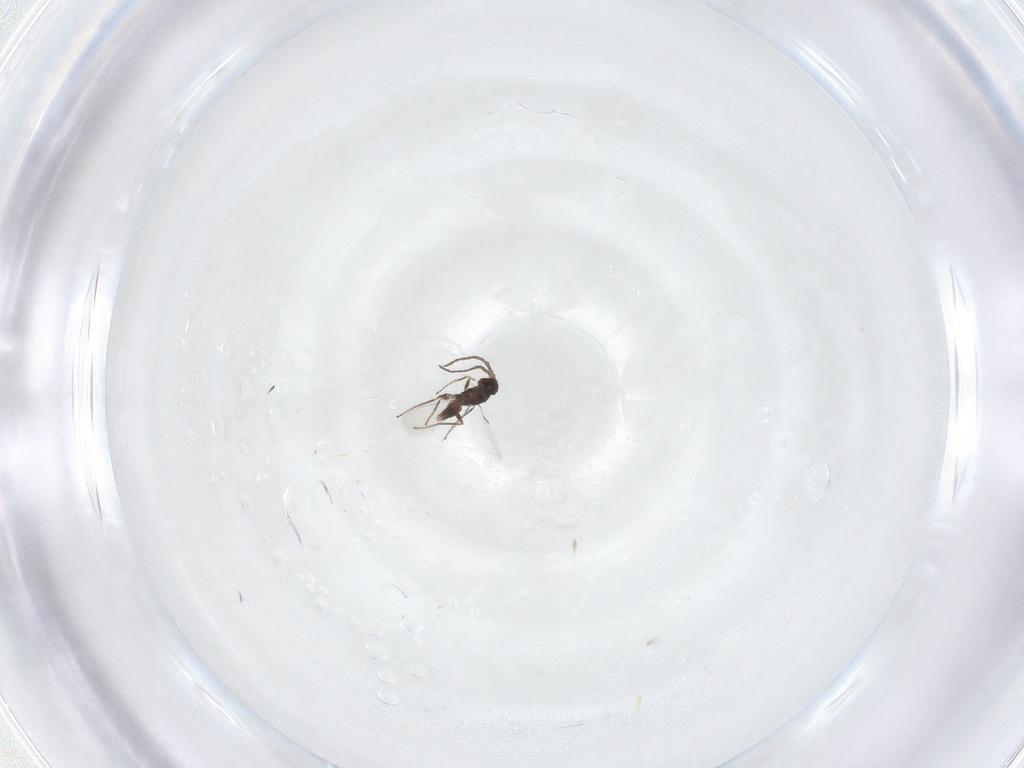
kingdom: Animalia
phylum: Arthropoda
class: Insecta
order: Hymenoptera
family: Mymaridae
